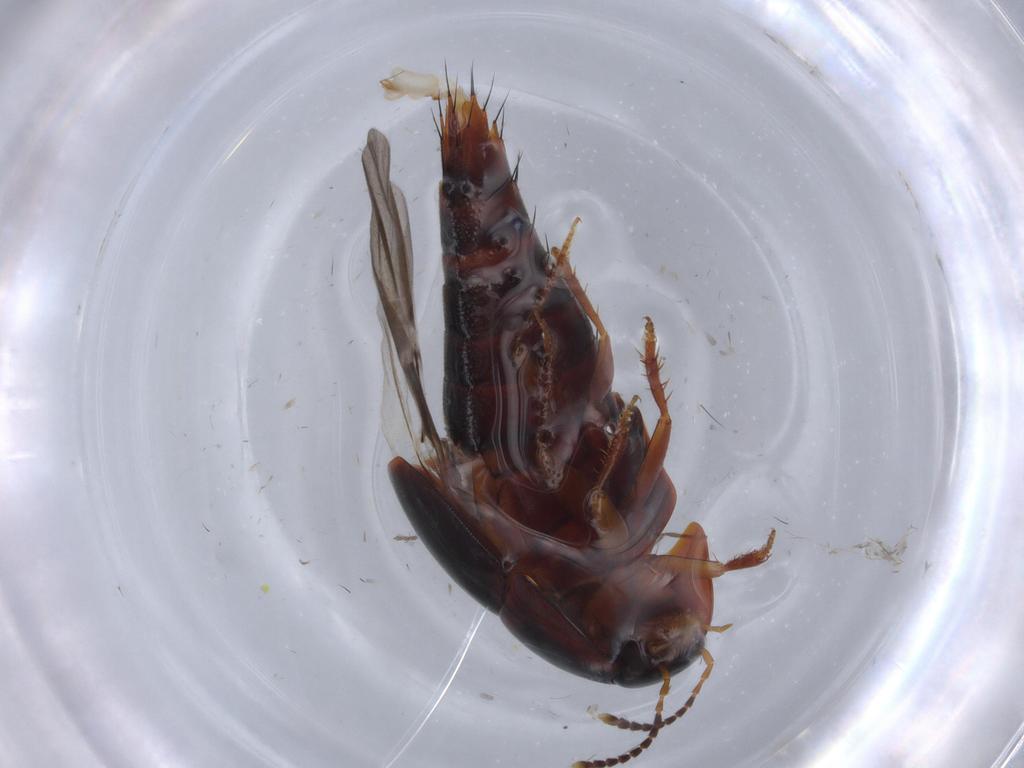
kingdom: Animalia
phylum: Arthropoda
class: Insecta
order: Coleoptera
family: Staphylinidae
